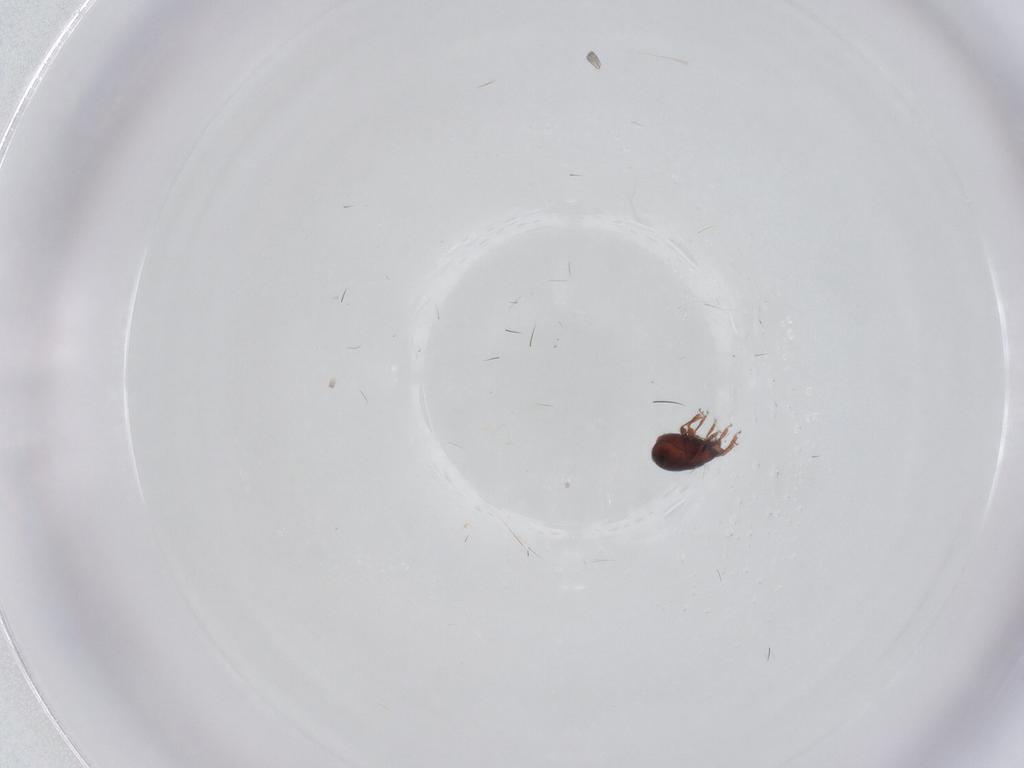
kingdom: Animalia
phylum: Arthropoda
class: Arachnida
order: Sarcoptiformes
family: Achipteriidae
